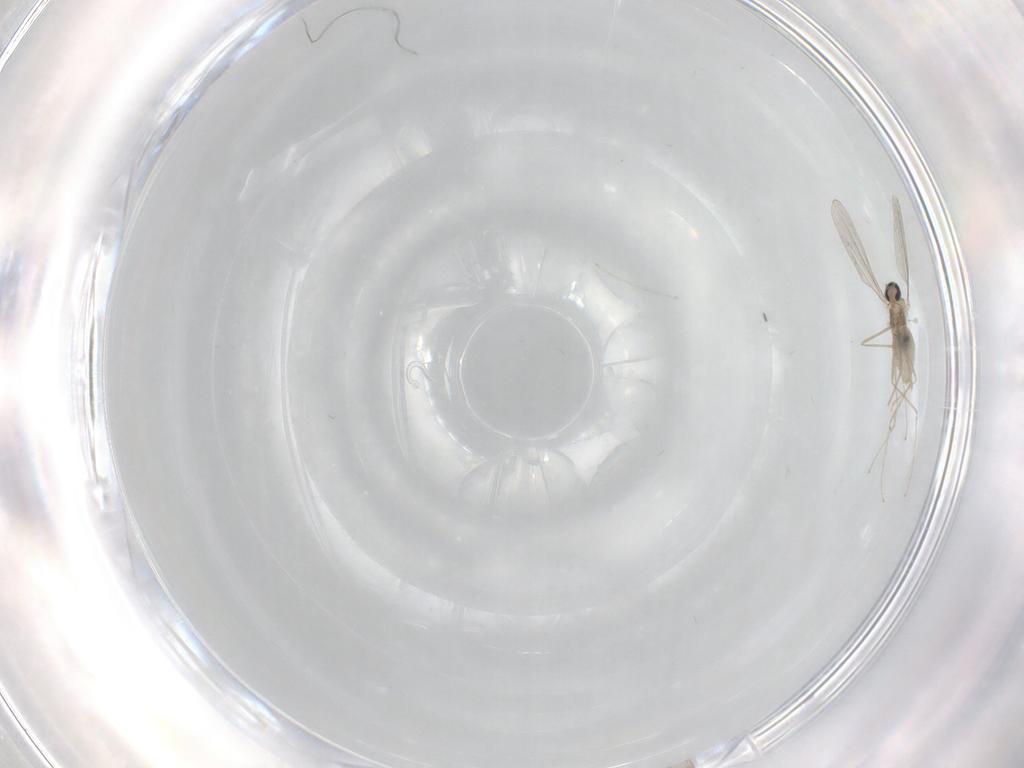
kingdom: Animalia
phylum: Arthropoda
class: Insecta
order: Diptera
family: Cecidomyiidae
